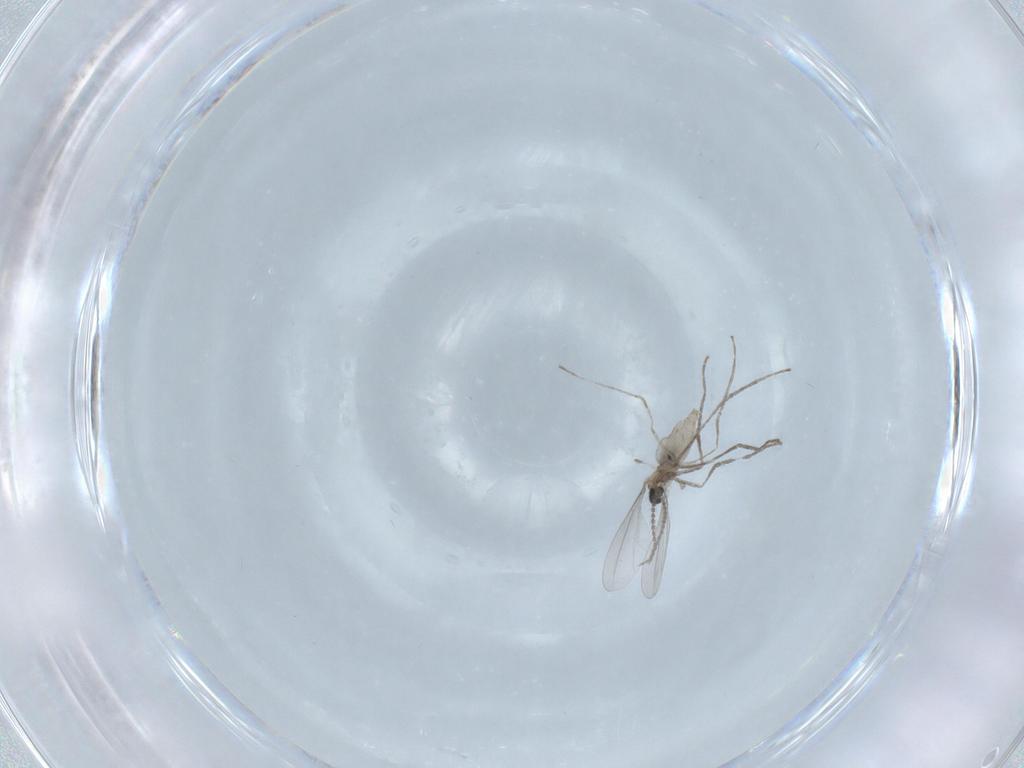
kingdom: Animalia
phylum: Arthropoda
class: Insecta
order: Diptera
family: Cecidomyiidae
